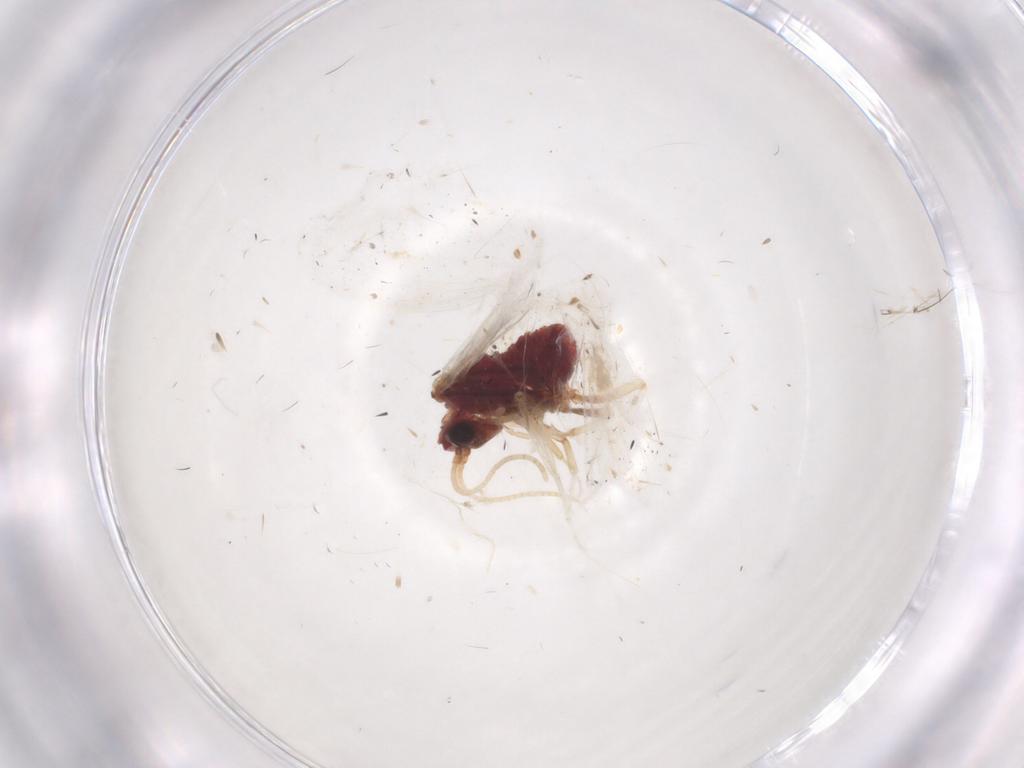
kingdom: Animalia
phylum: Arthropoda
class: Insecta
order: Neuroptera
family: Coniopterygidae
